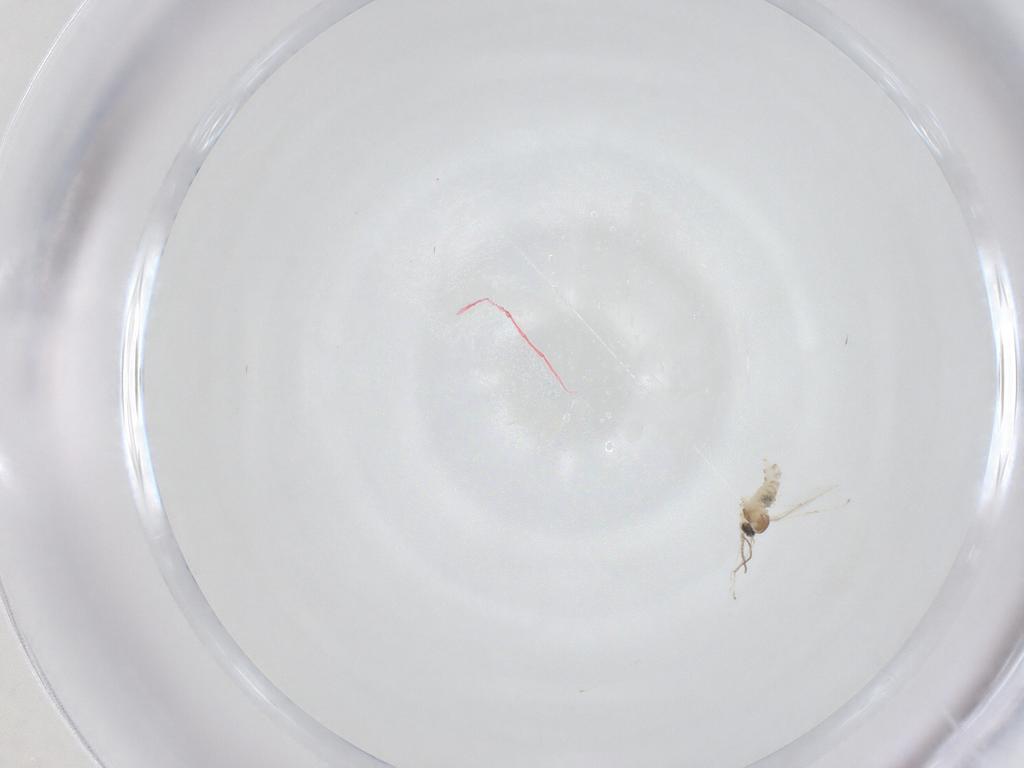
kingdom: Animalia
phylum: Arthropoda
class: Insecta
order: Diptera
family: Cecidomyiidae
